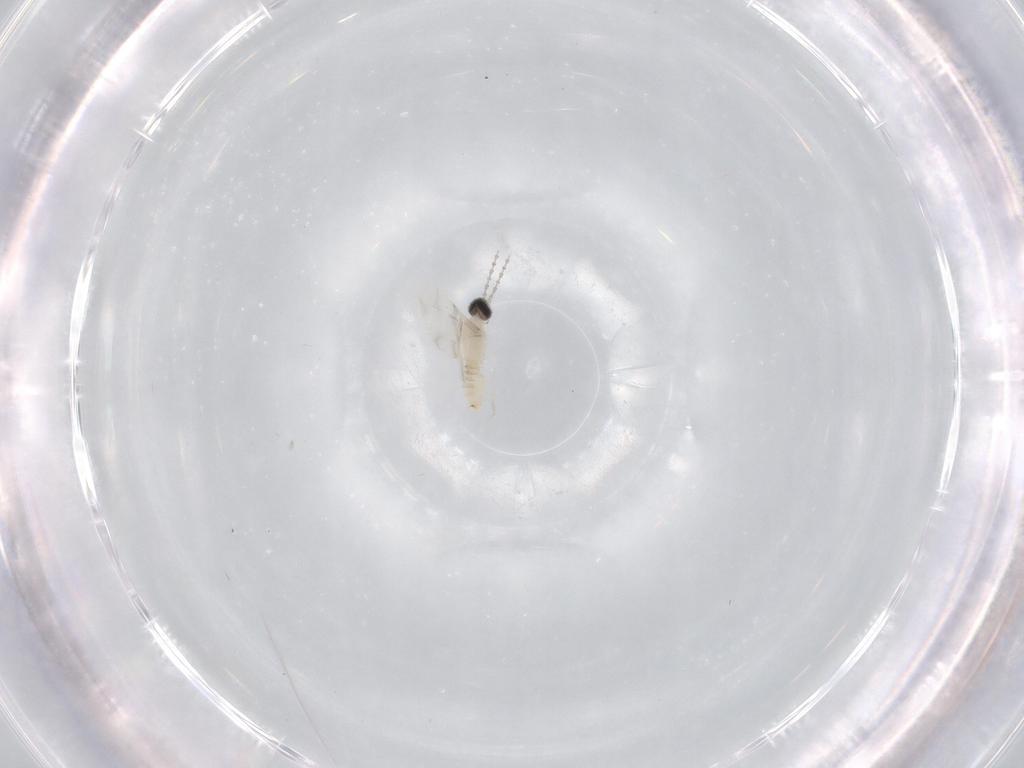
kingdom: Animalia
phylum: Arthropoda
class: Insecta
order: Diptera
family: Cecidomyiidae
